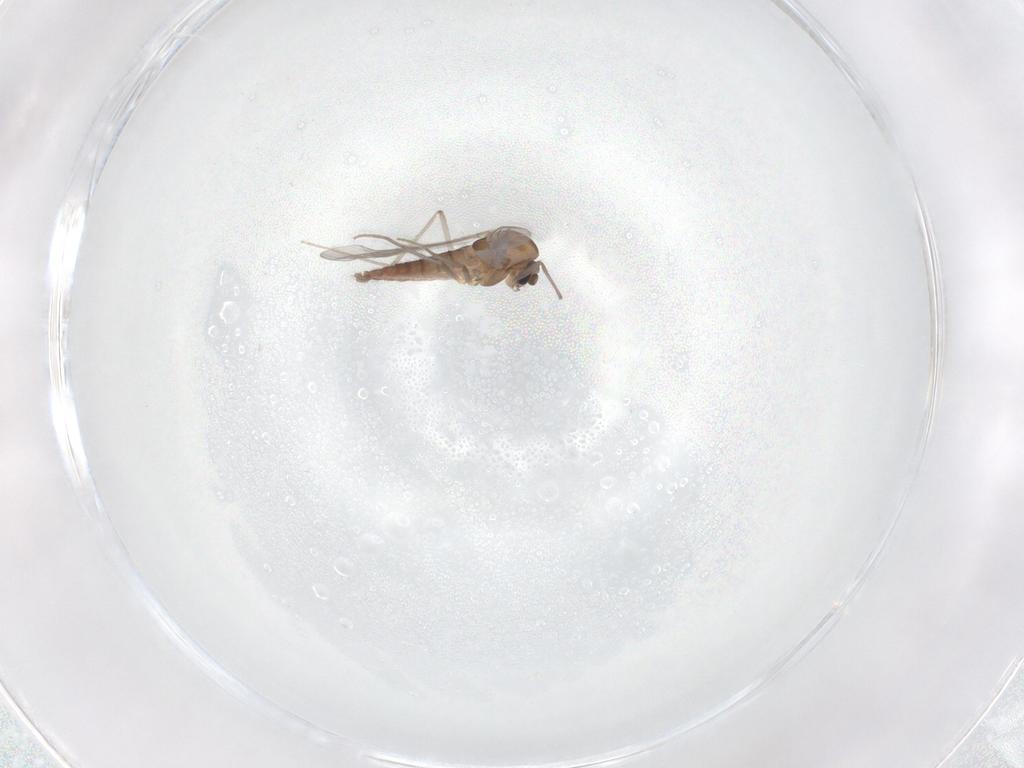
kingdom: Animalia
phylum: Arthropoda
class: Insecta
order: Diptera
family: Chironomidae
